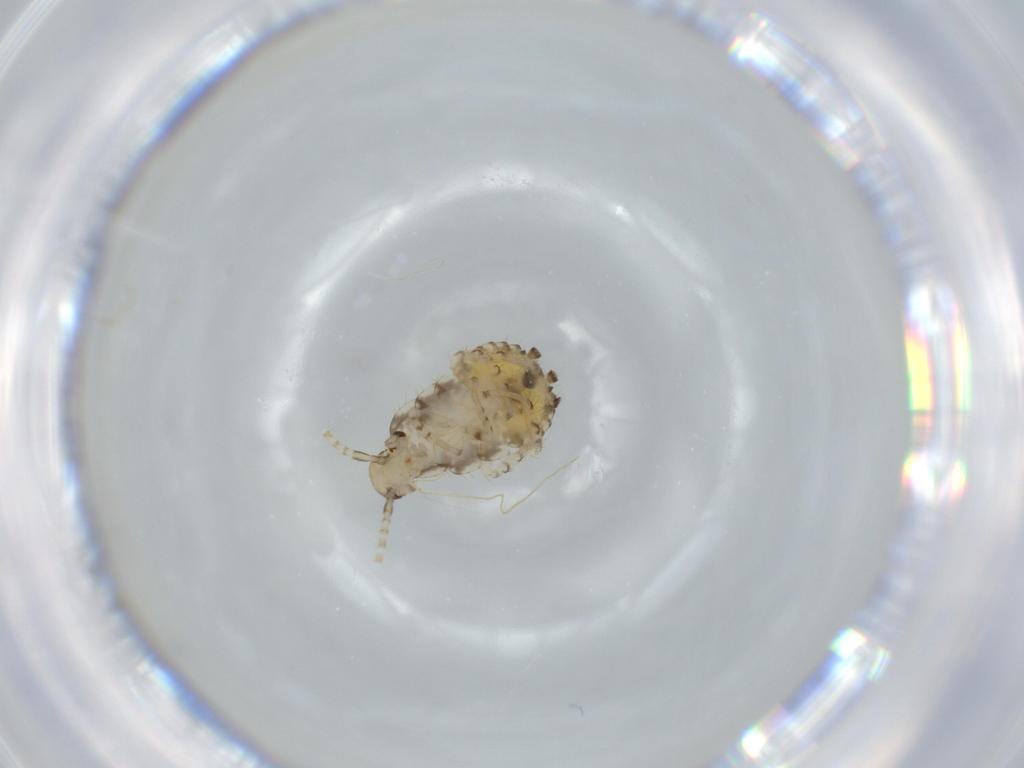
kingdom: Animalia
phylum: Arthropoda
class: Insecta
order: Blattodea
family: Ectobiidae
